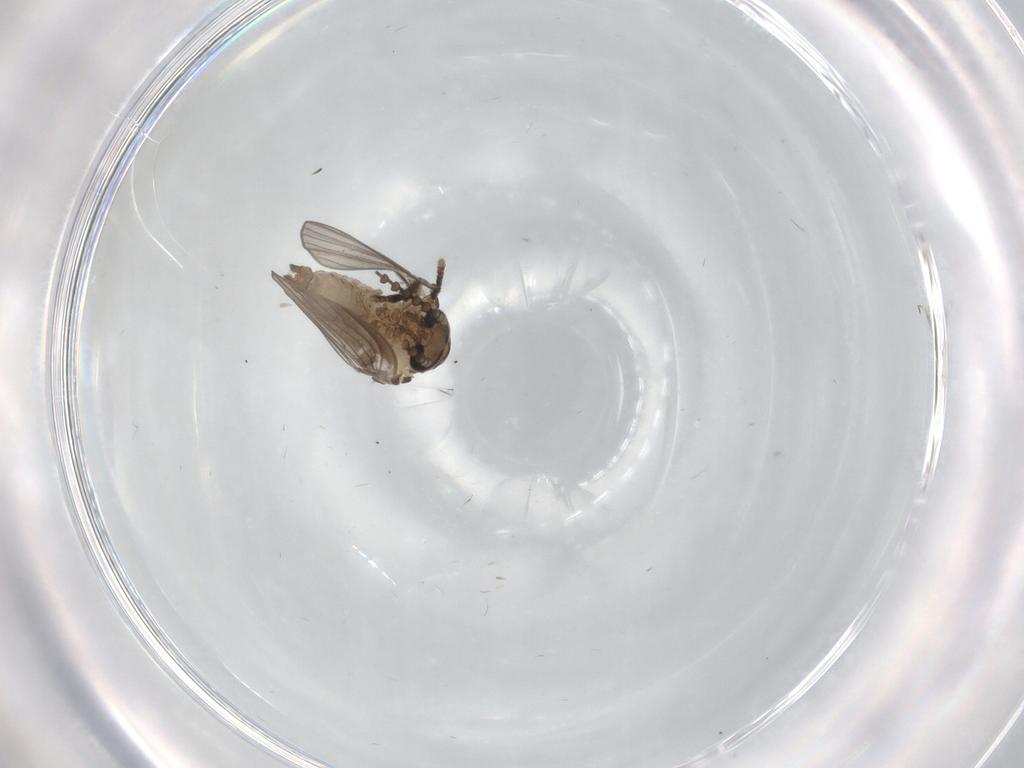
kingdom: Animalia
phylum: Arthropoda
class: Insecta
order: Diptera
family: Psychodidae
